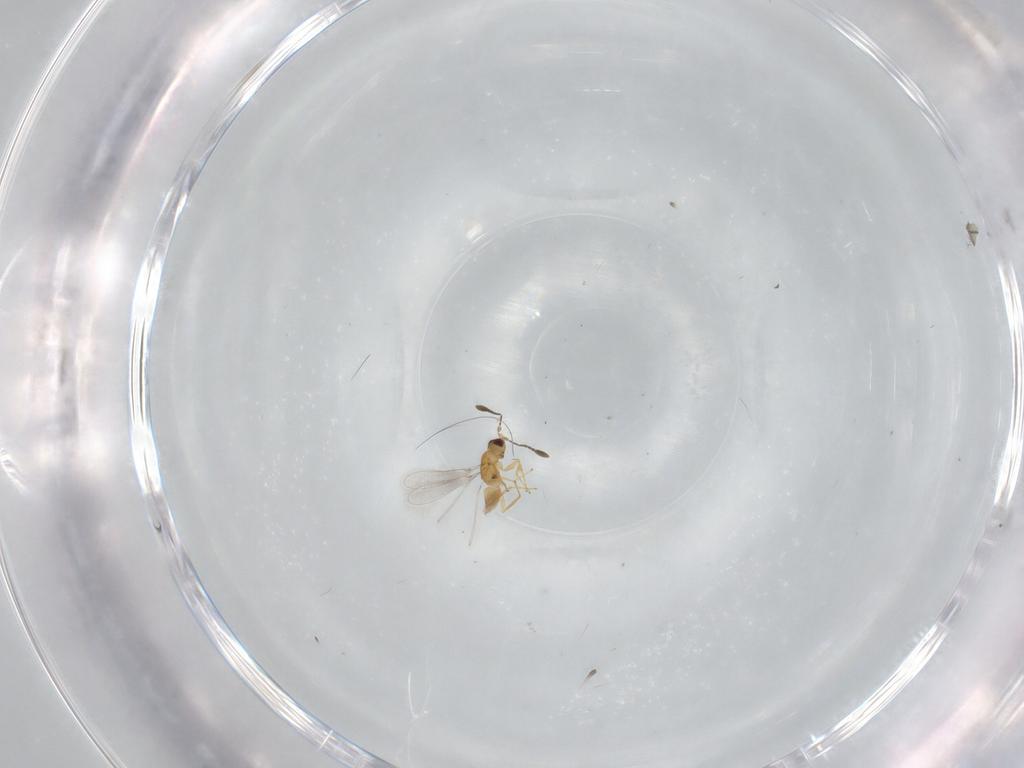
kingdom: Animalia
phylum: Arthropoda
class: Insecta
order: Hymenoptera
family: Mymaridae
